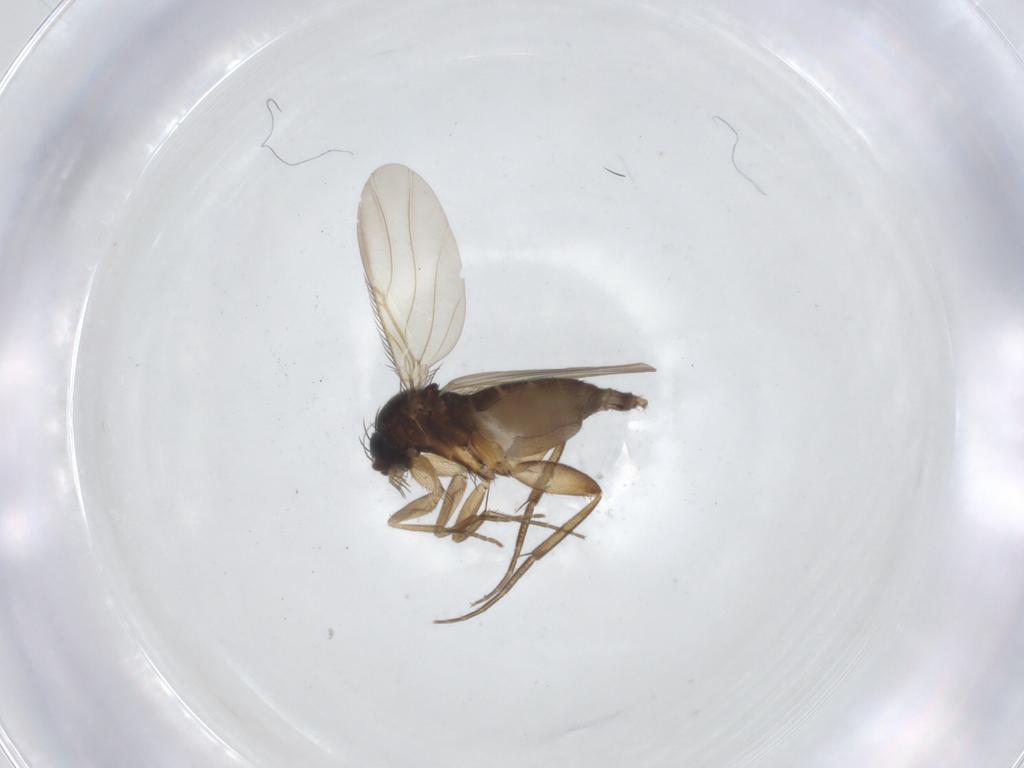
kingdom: Animalia
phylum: Arthropoda
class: Insecta
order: Diptera
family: Phoridae
